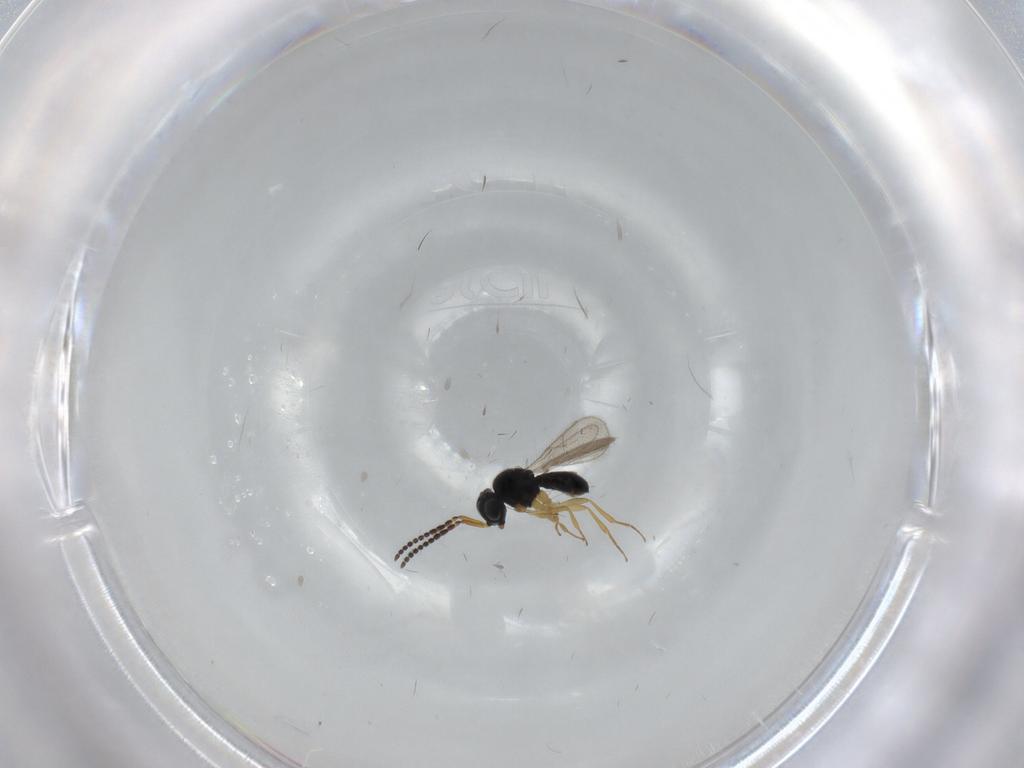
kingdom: Animalia
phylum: Arthropoda
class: Insecta
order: Hymenoptera
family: Scelionidae
